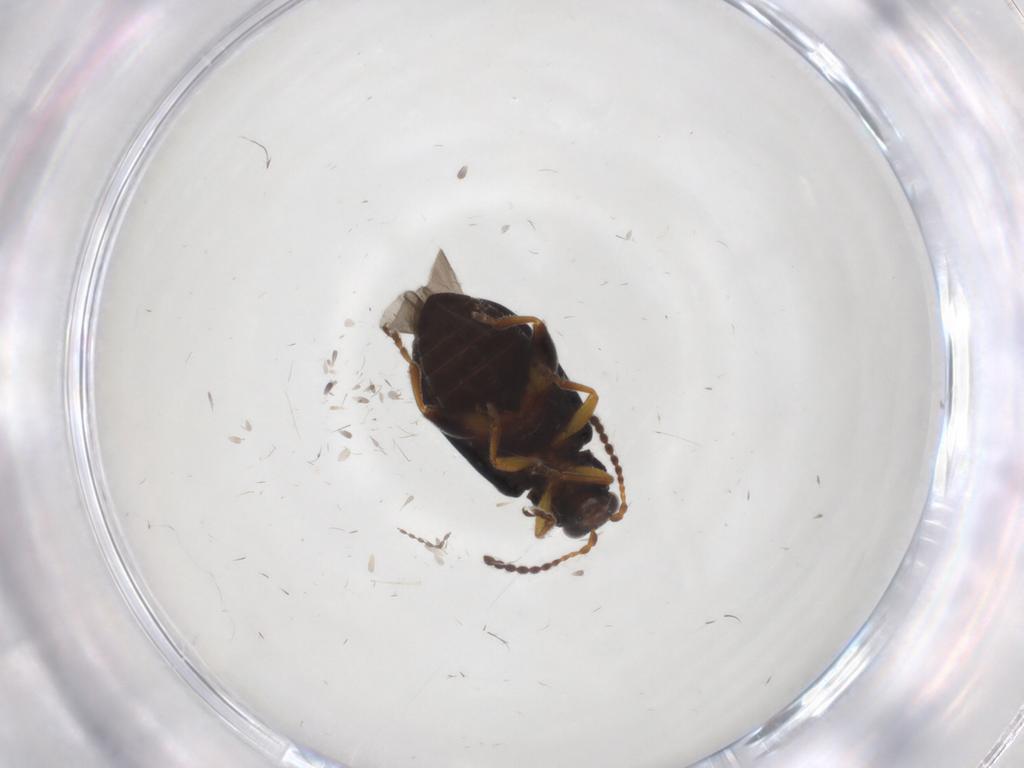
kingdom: Animalia
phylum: Arthropoda
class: Insecta
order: Coleoptera
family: Chrysomelidae
